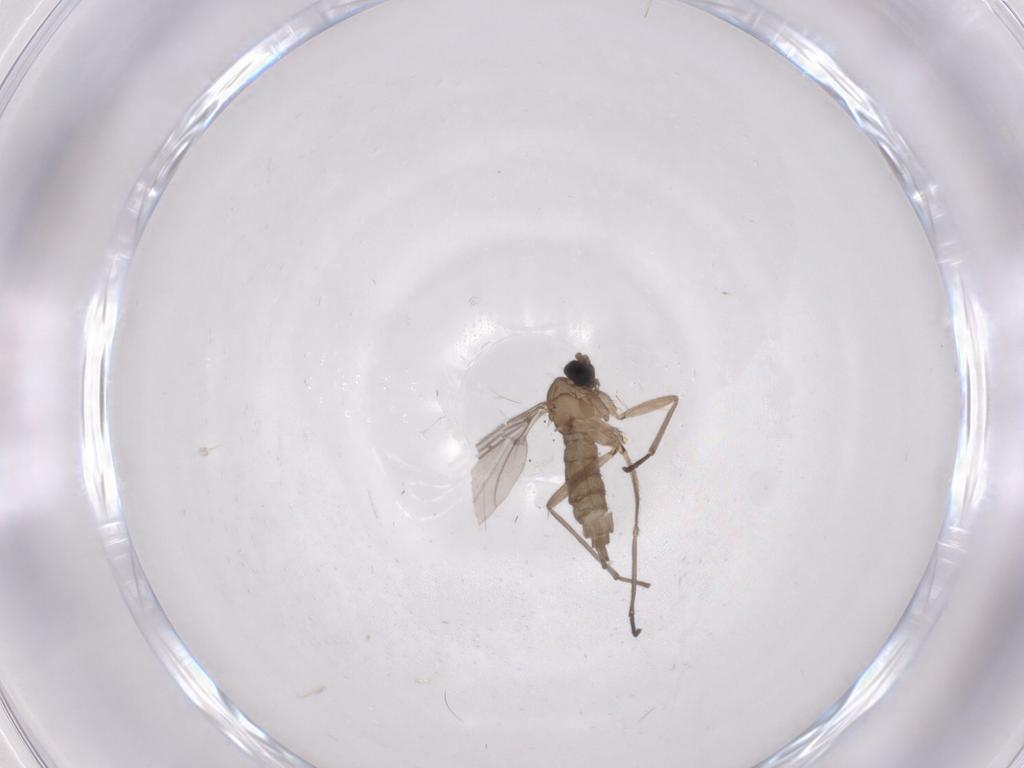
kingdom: Animalia
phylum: Arthropoda
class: Insecta
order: Diptera
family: Sciaridae
